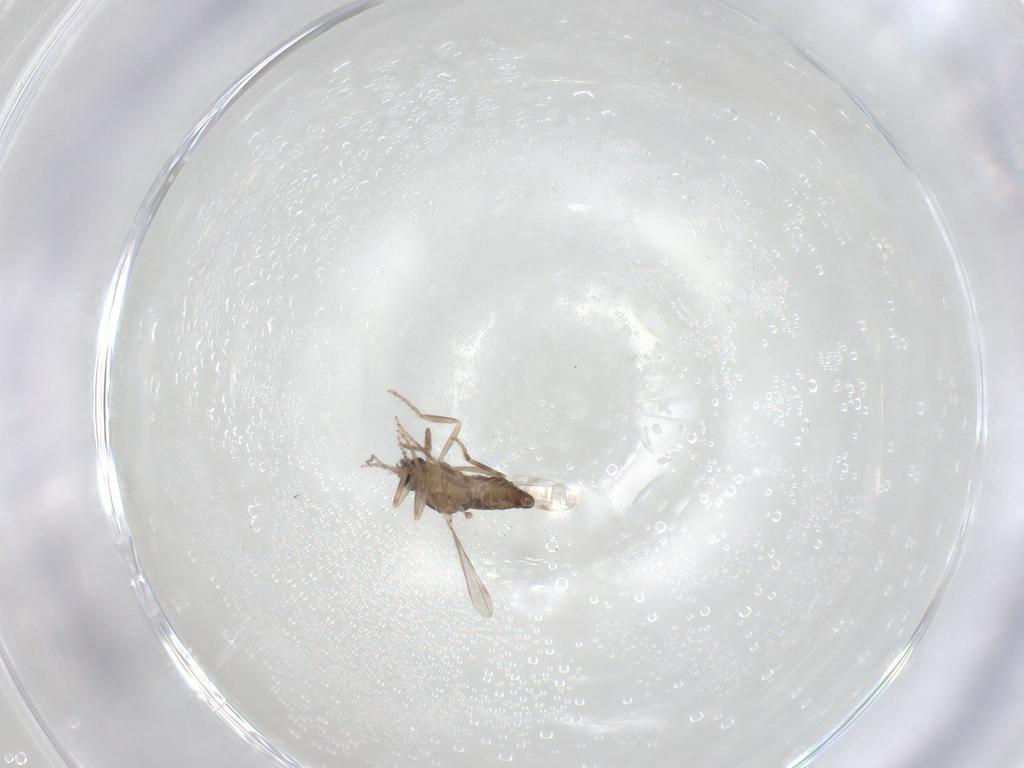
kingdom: Animalia
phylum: Arthropoda
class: Insecta
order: Diptera
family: Ceratopogonidae
